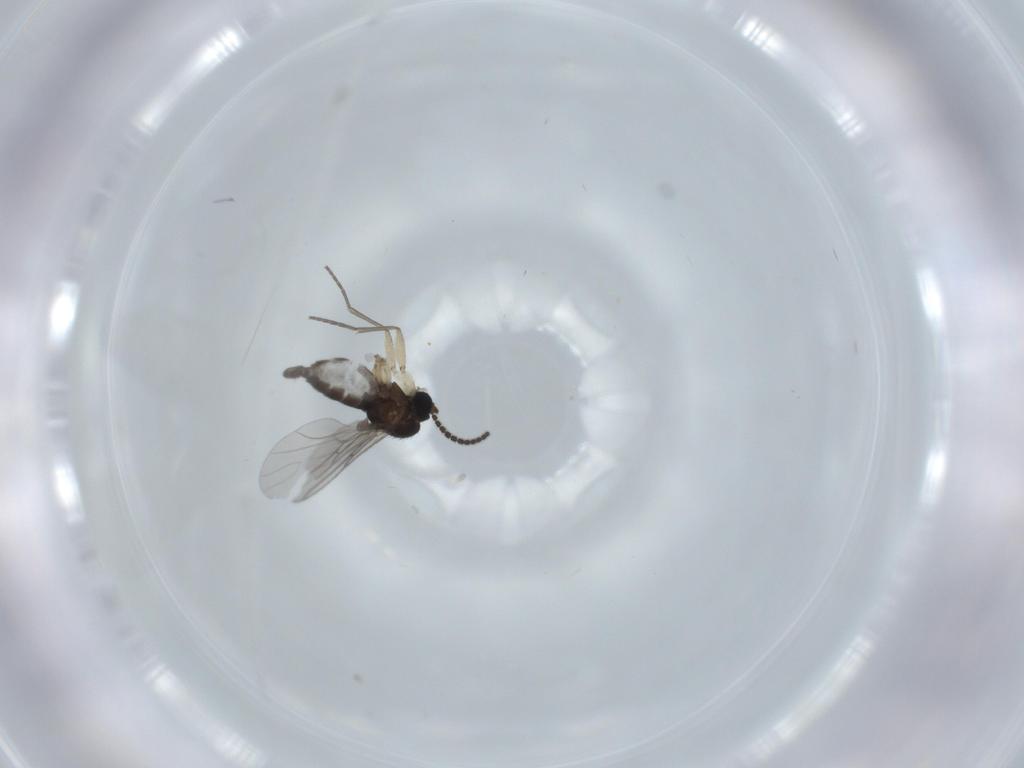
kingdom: Animalia
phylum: Arthropoda
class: Insecta
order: Diptera
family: Sciaridae
